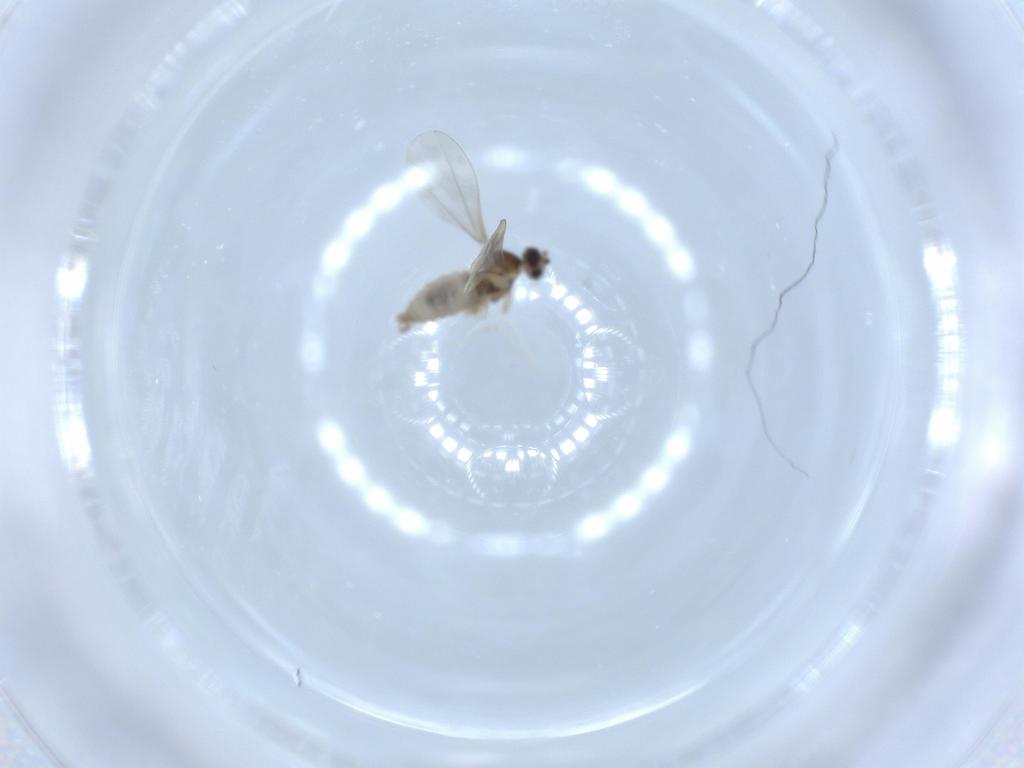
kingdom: Animalia
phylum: Arthropoda
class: Insecta
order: Diptera
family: Cecidomyiidae
